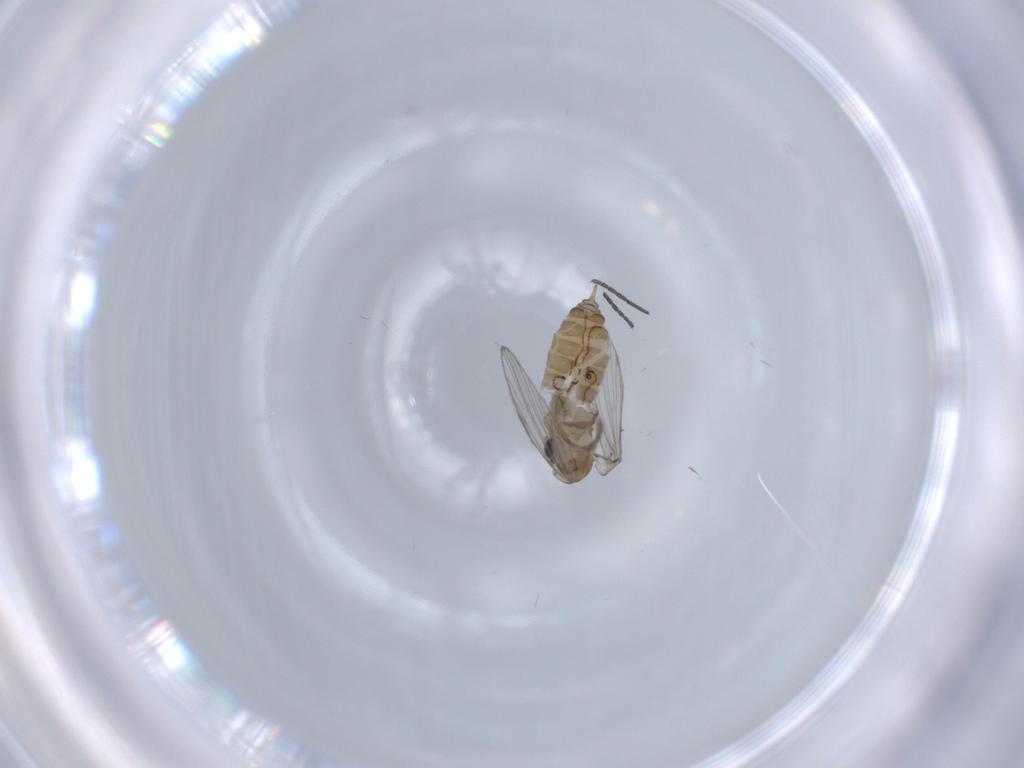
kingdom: Animalia
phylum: Arthropoda
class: Insecta
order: Diptera
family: Sciaridae
